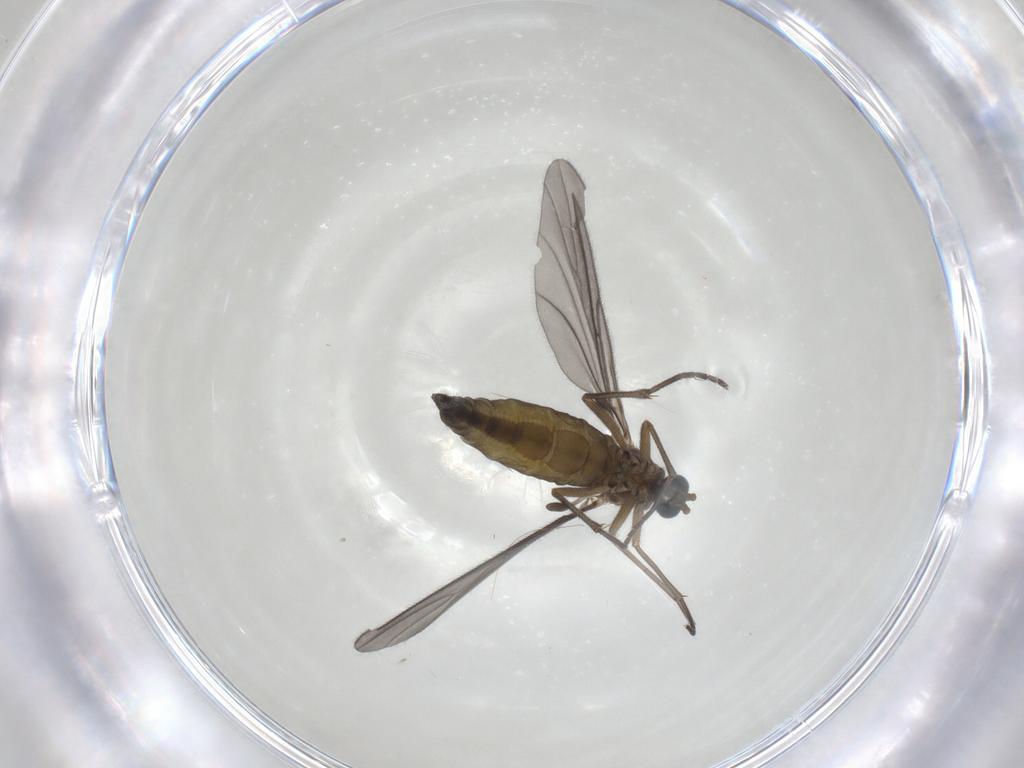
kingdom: Animalia
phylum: Arthropoda
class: Insecta
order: Diptera
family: Sciaridae
